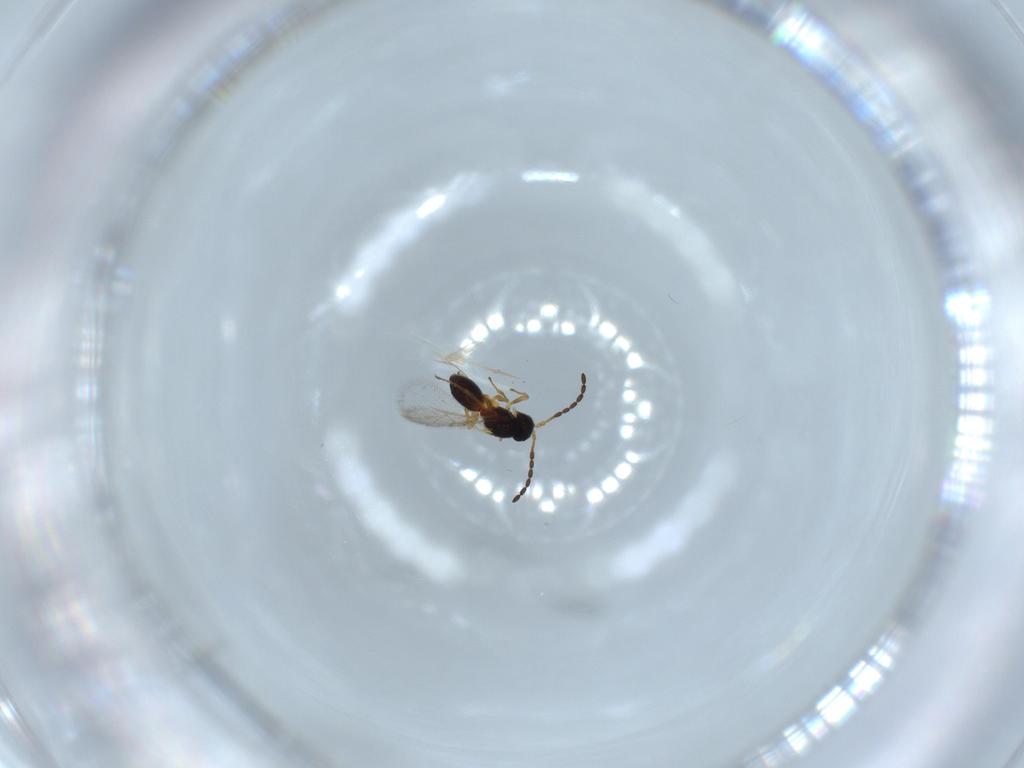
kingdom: Animalia
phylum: Arthropoda
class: Insecta
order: Hymenoptera
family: Figitidae
